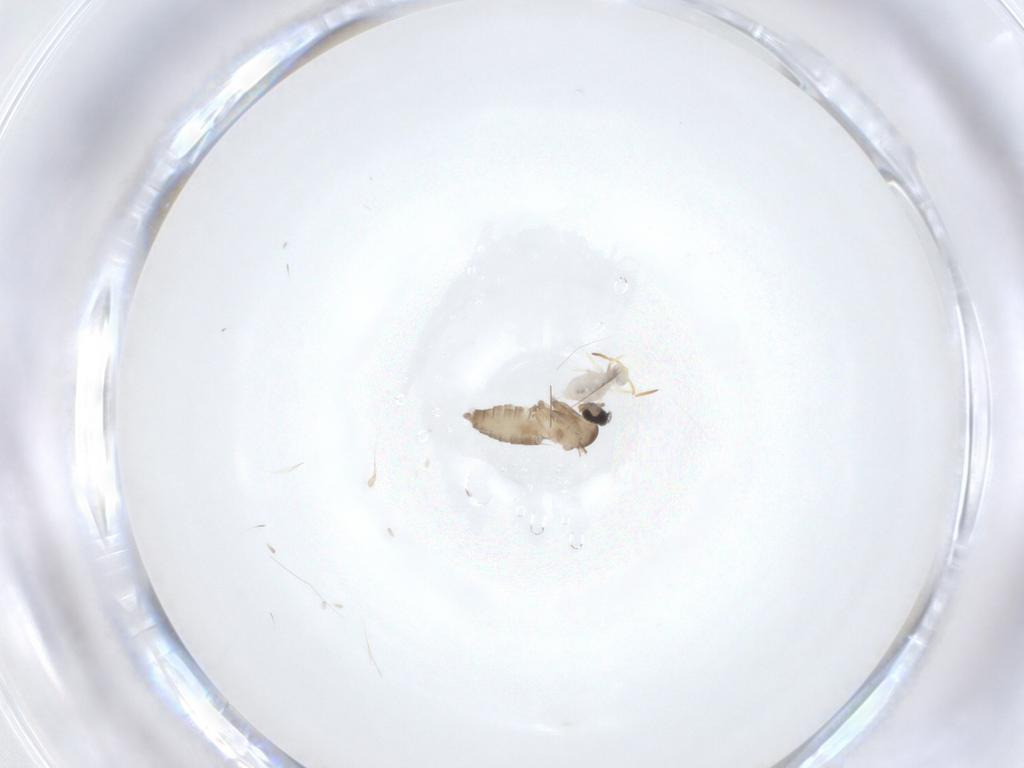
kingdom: Animalia
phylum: Arthropoda
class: Insecta
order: Diptera
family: Cecidomyiidae
